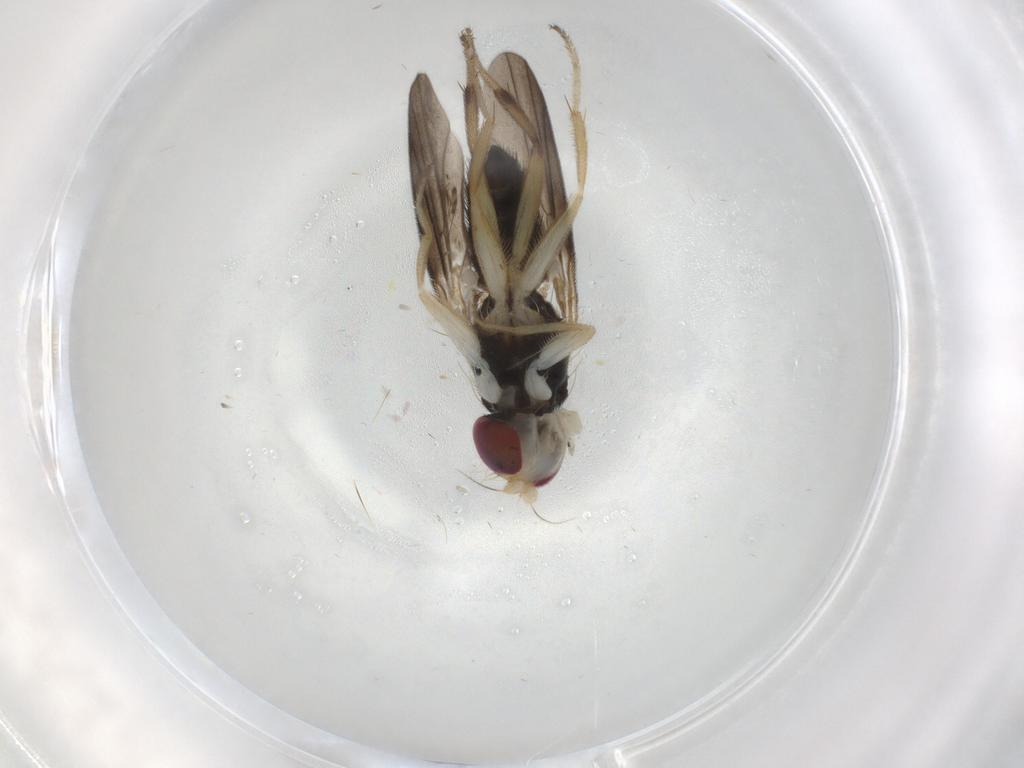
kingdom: Animalia
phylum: Arthropoda
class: Insecta
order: Diptera
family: Clusiidae
